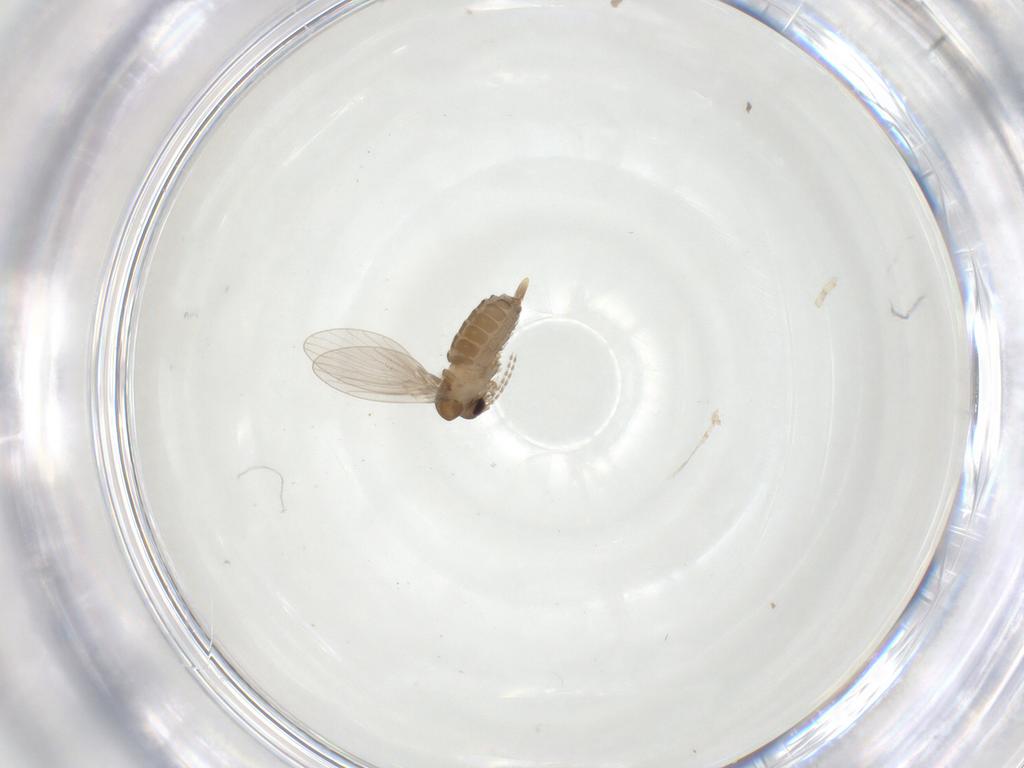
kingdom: Animalia
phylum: Arthropoda
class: Insecta
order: Diptera
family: Psychodidae
